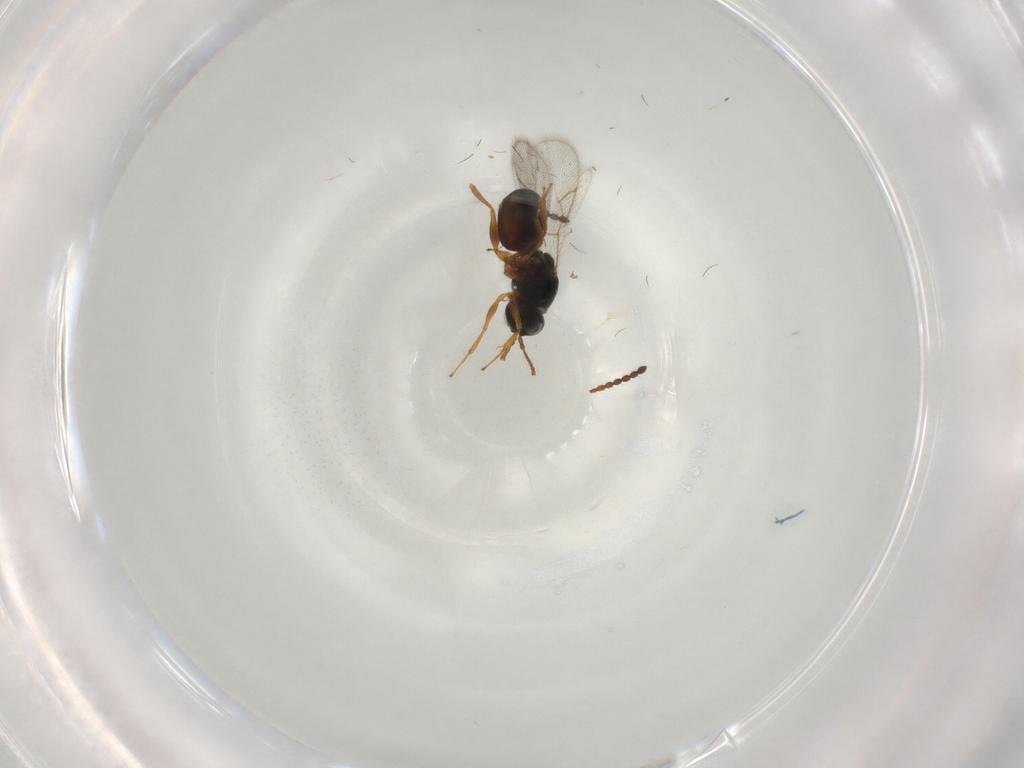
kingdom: Animalia
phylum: Arthropoda
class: Insecta
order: Hymenoptera
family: Figitidae
